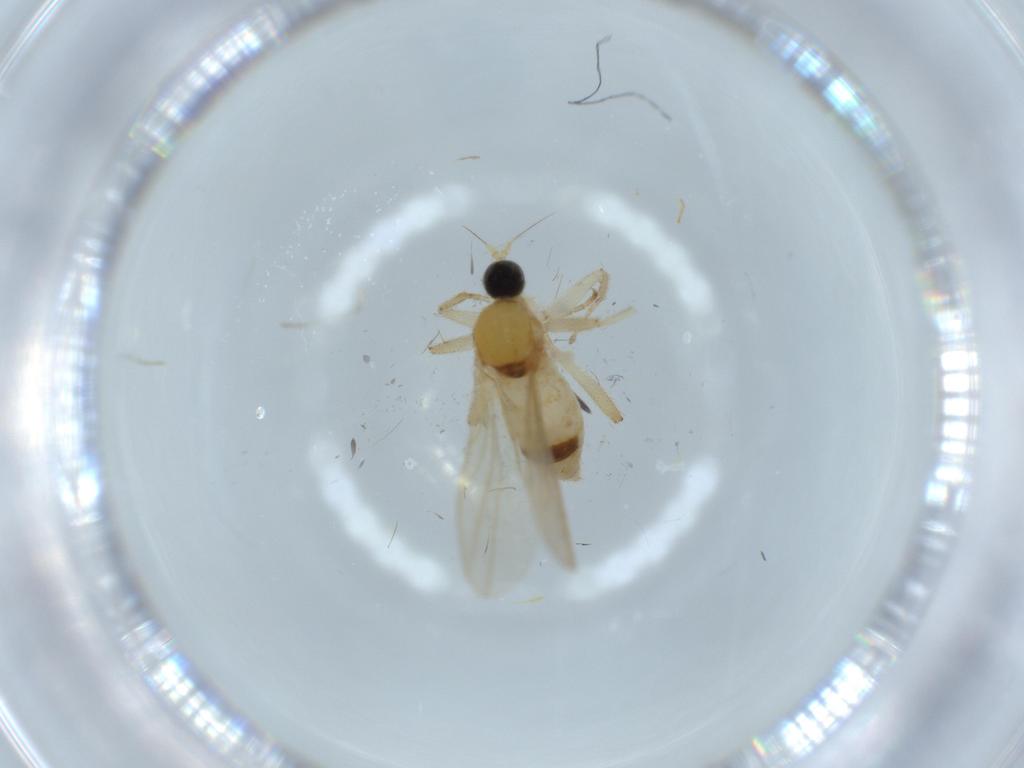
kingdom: Animalia
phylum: Arthropoda
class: Insecta
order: Diptera
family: Hybotidae
